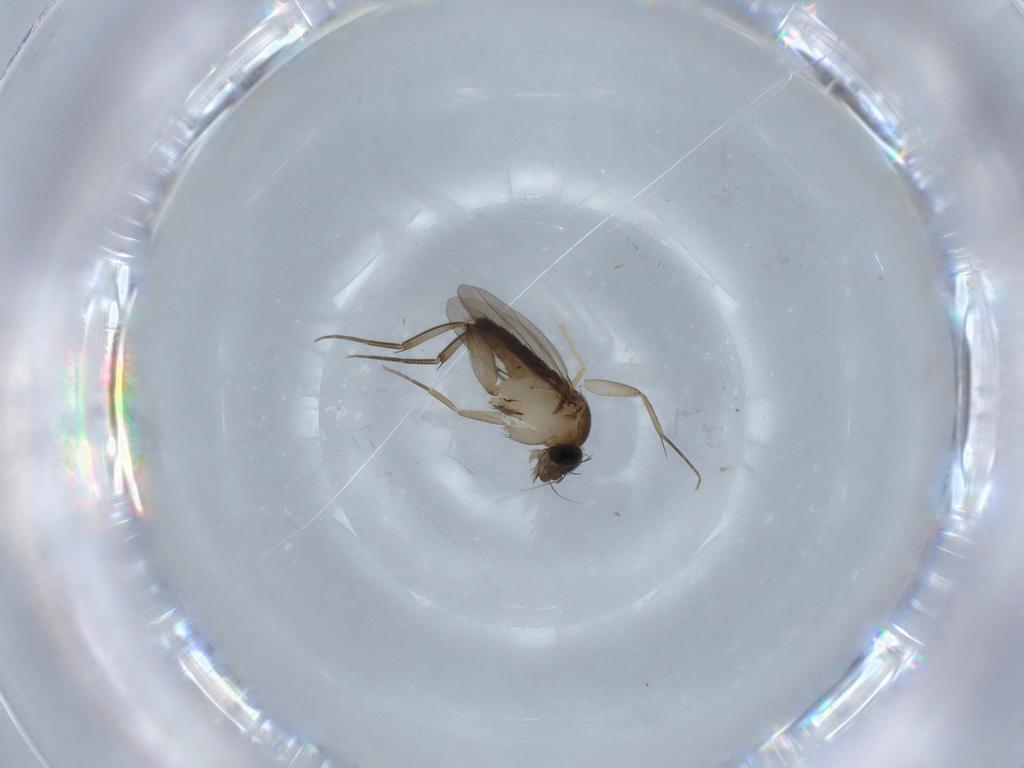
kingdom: Animalia
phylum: Arthropoda
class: Insecta
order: Diptera
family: Phoridae
